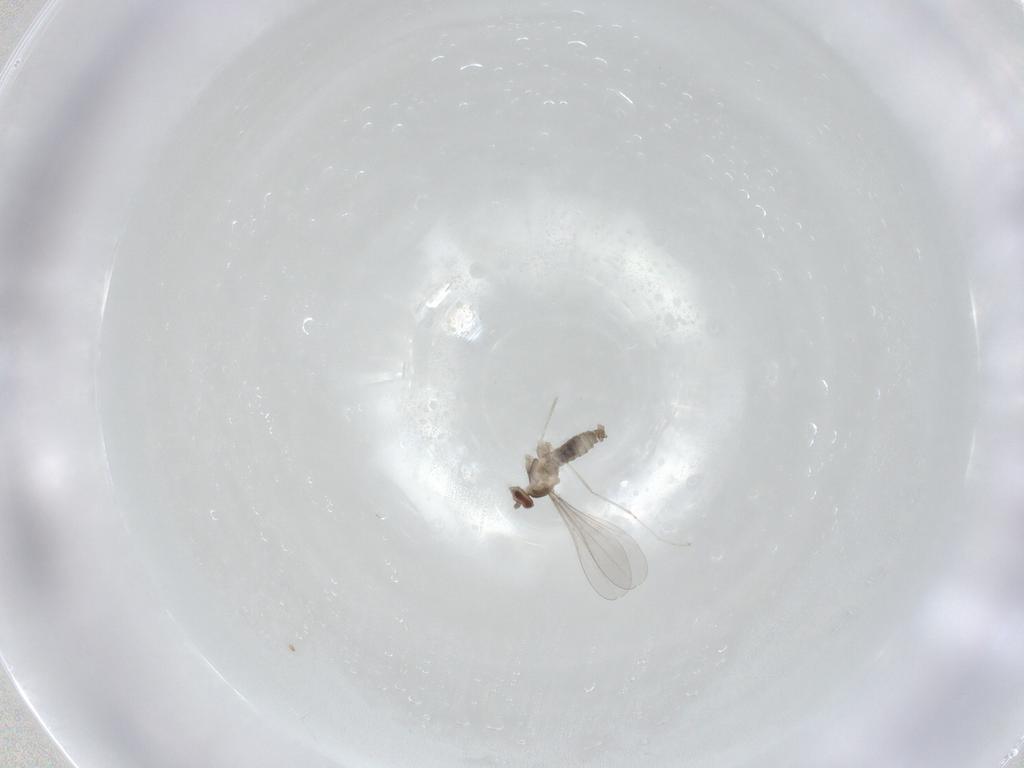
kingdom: Animalia
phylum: Arthropoda
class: Insecta
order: Diptera
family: Cecidomyiidae
